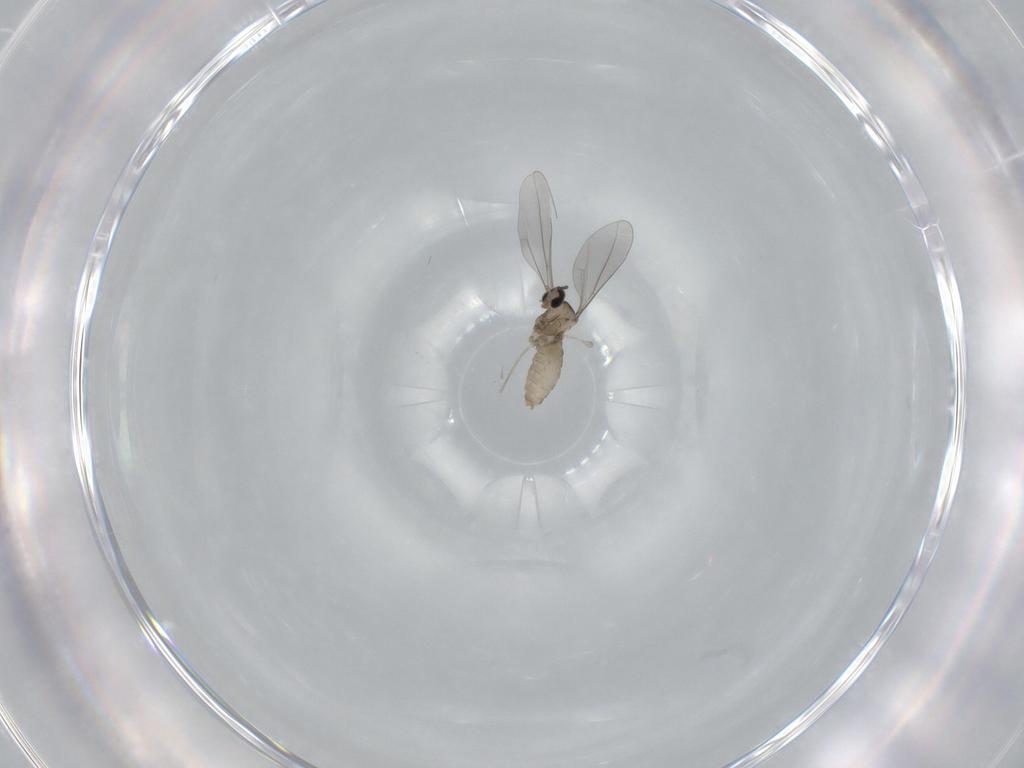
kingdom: Animalia
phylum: Arthropoda
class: Insecta
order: Diptera
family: Cecidomyiidae
